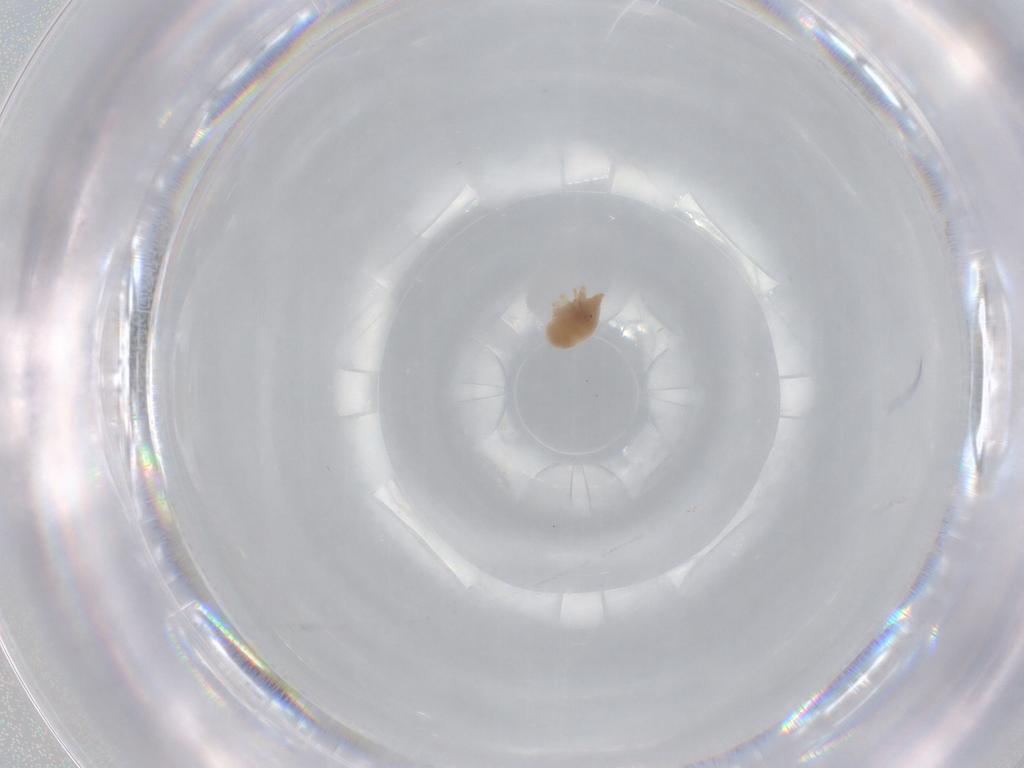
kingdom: Animalia
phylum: Arthropoda
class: Arachnida
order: Trombidiformes
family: Bdellidae
